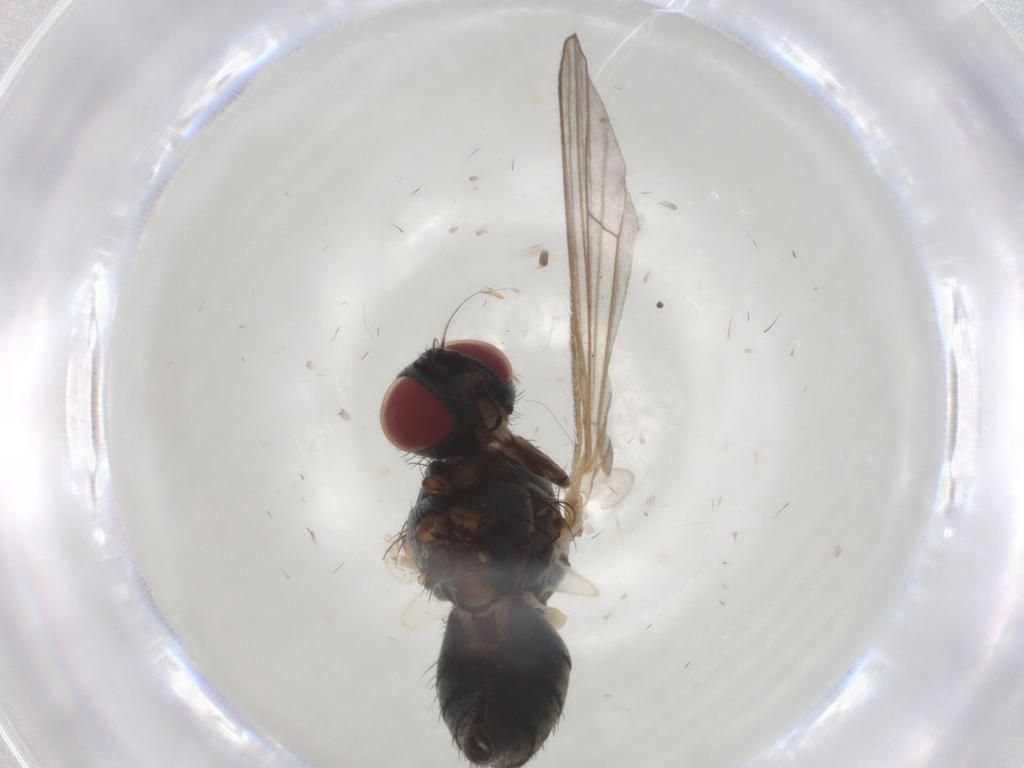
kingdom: Animalia
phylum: Arthropoda
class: Insecta
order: Diptera
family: Muscidae
